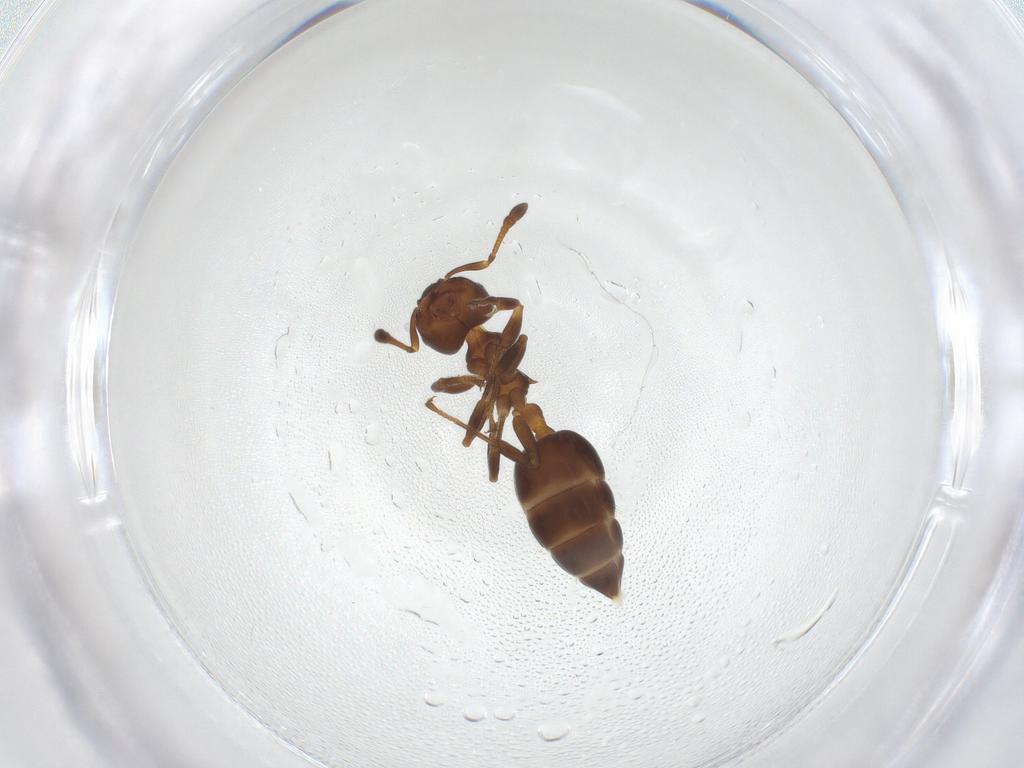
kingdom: Animalia
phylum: Arthropoda
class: Insecta
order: Hymenoptera
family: Formicidae
